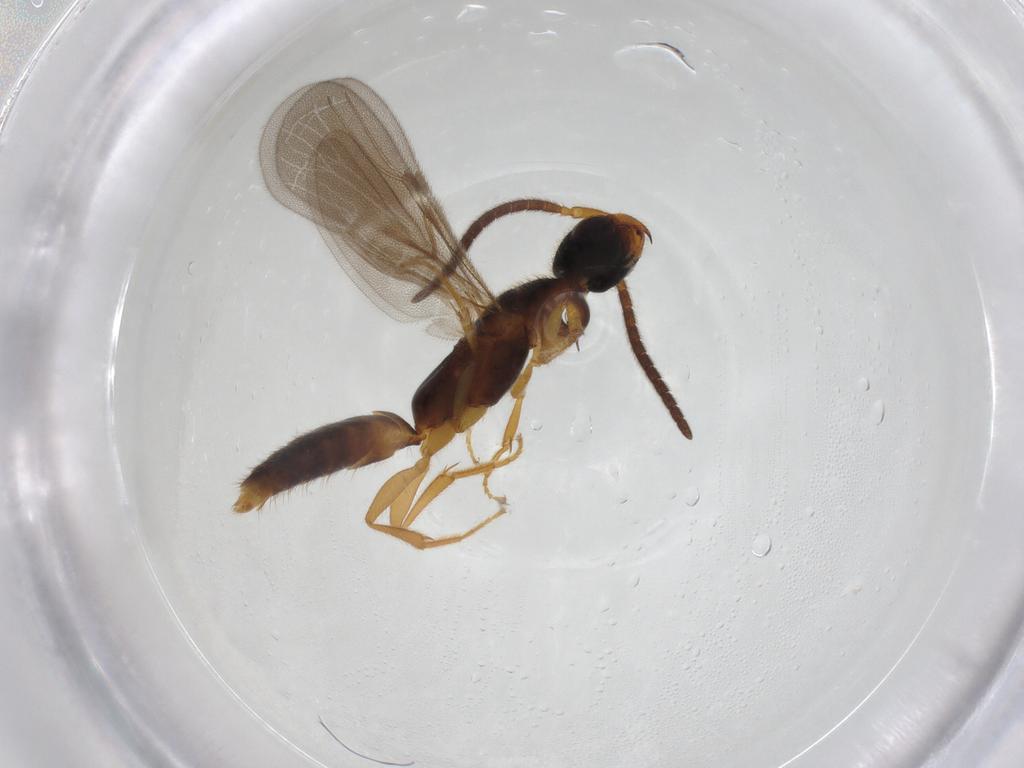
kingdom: Animalia
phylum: Arthropoda
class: Insecta
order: Hymenoptera
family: Bethylidae
